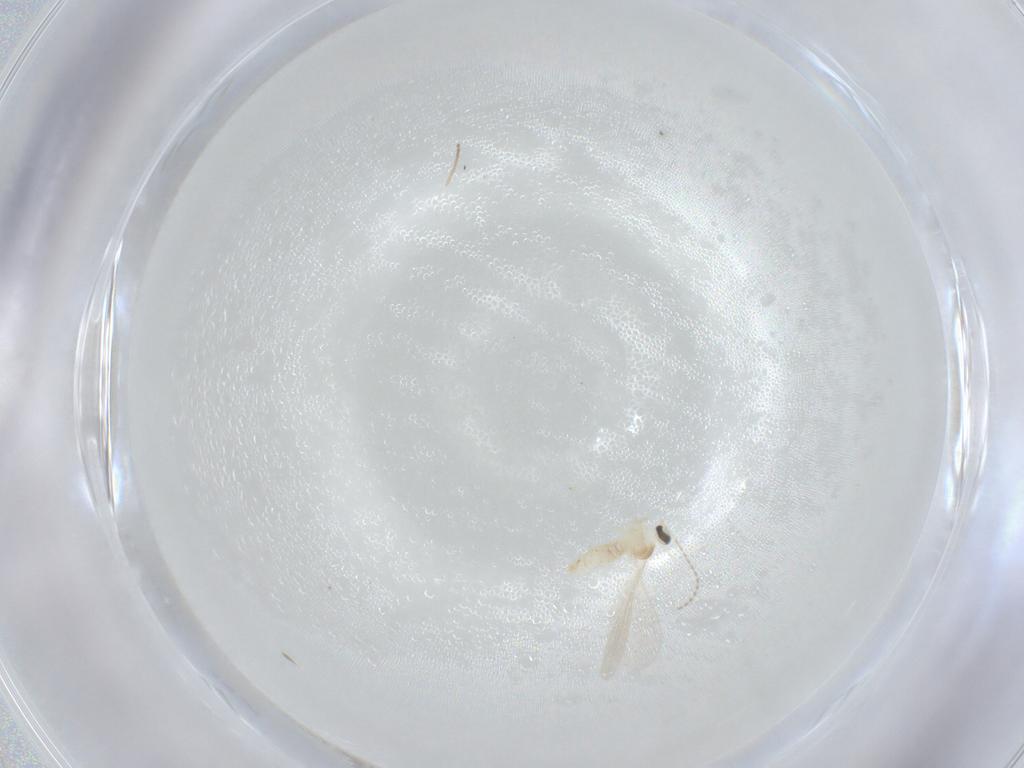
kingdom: Animalia
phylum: Arthropoda
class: Insecta
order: Diptera
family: Cecidomyiidae
